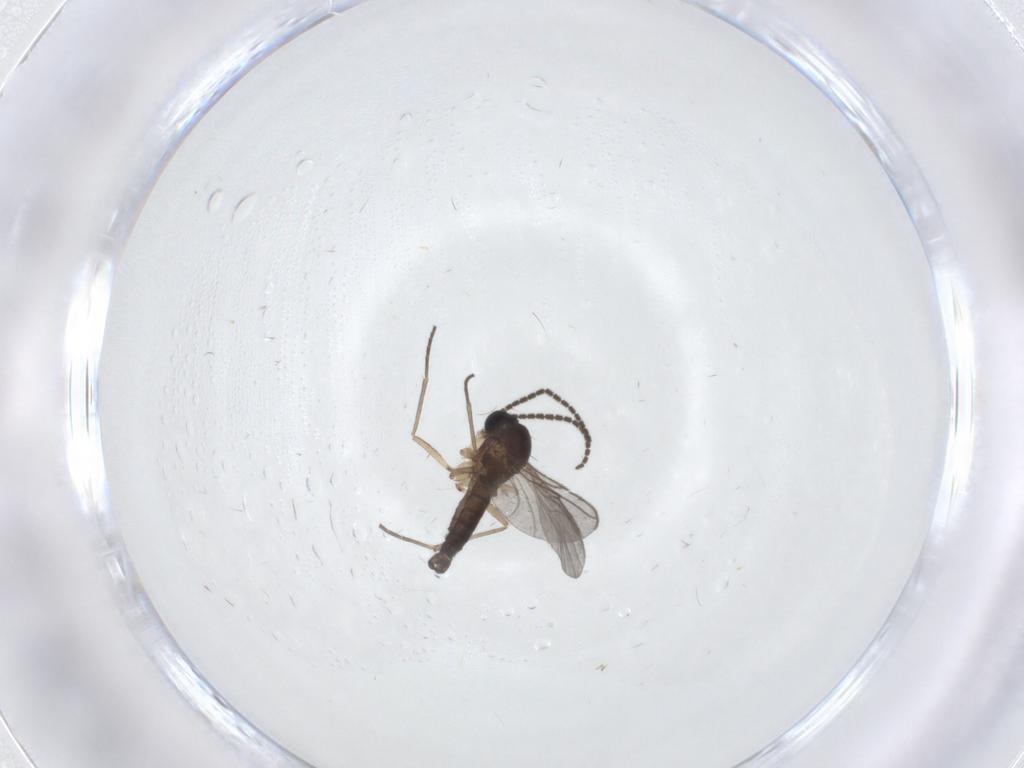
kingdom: Animalia
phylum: Arthropoda
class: Insecta
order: Diptera
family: Sciaridae
